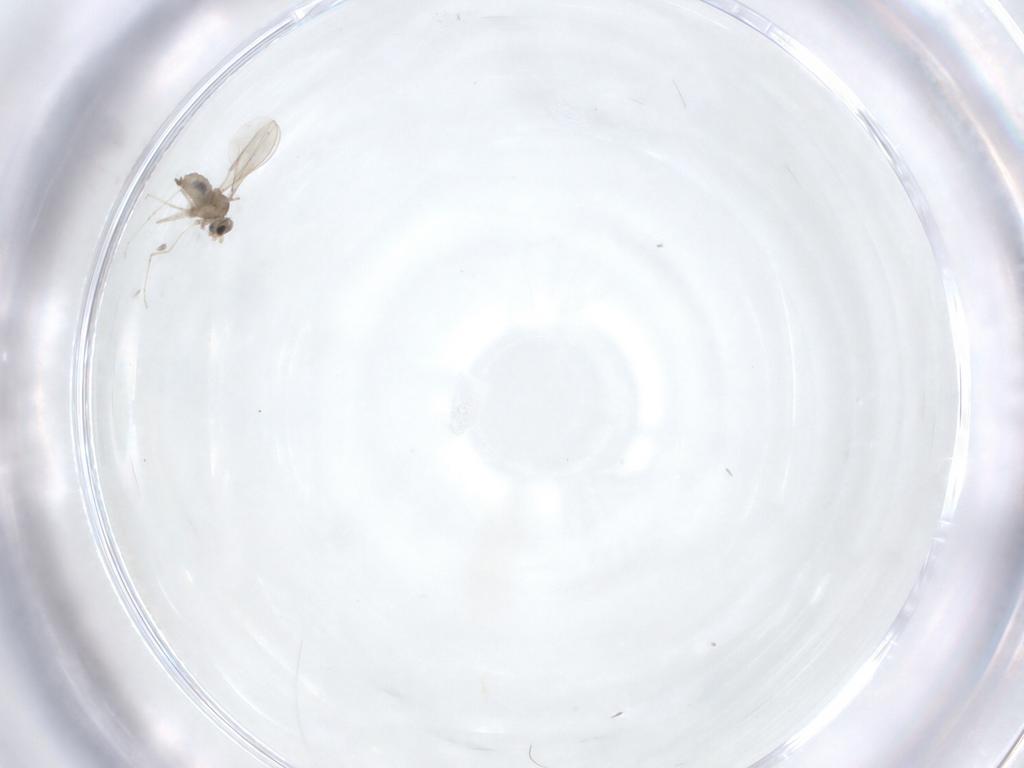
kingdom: Animalia
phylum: Arthropoda
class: Insecta
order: Diptera
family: Cecidomyiidae
